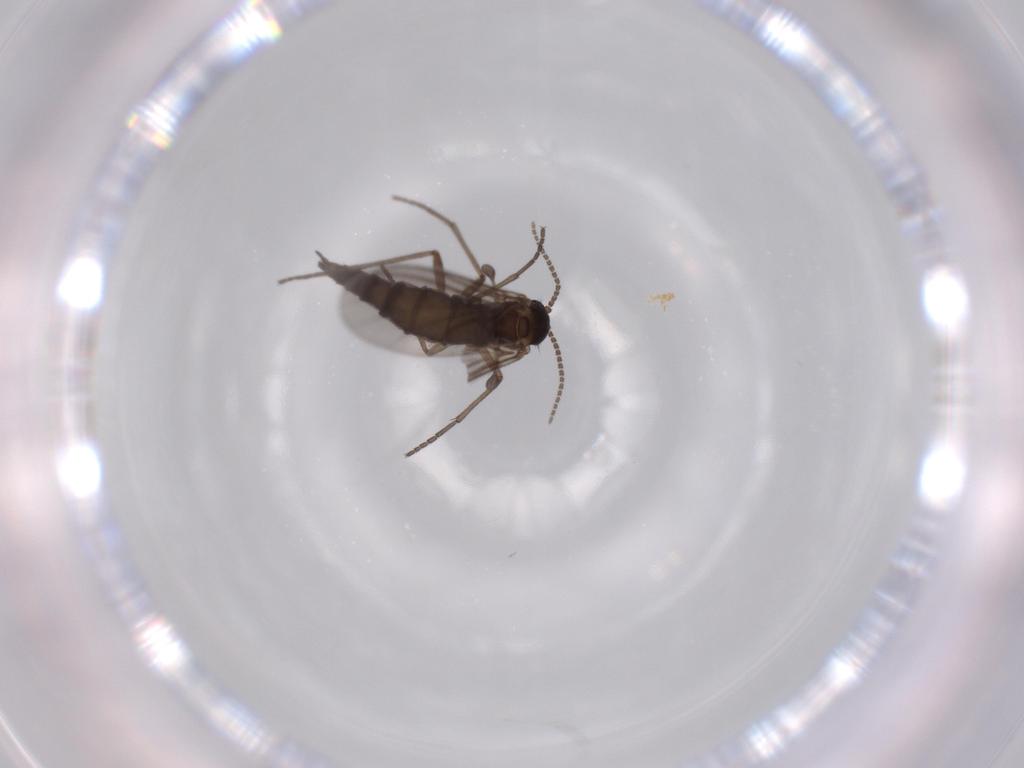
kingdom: Animalia
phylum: Arthropoda
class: Insecta
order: Diptera
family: Sciaridae
